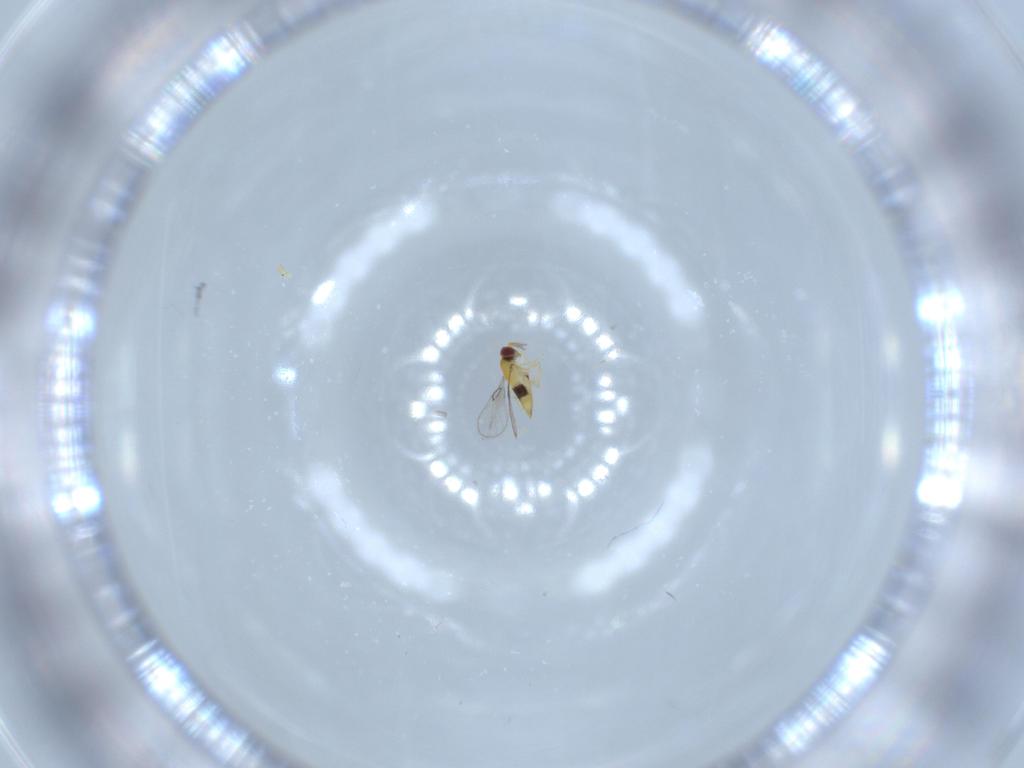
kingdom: Animalia
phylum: Arthropoda
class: Insecta
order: Hymenoptera
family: Trichogrammatidae
